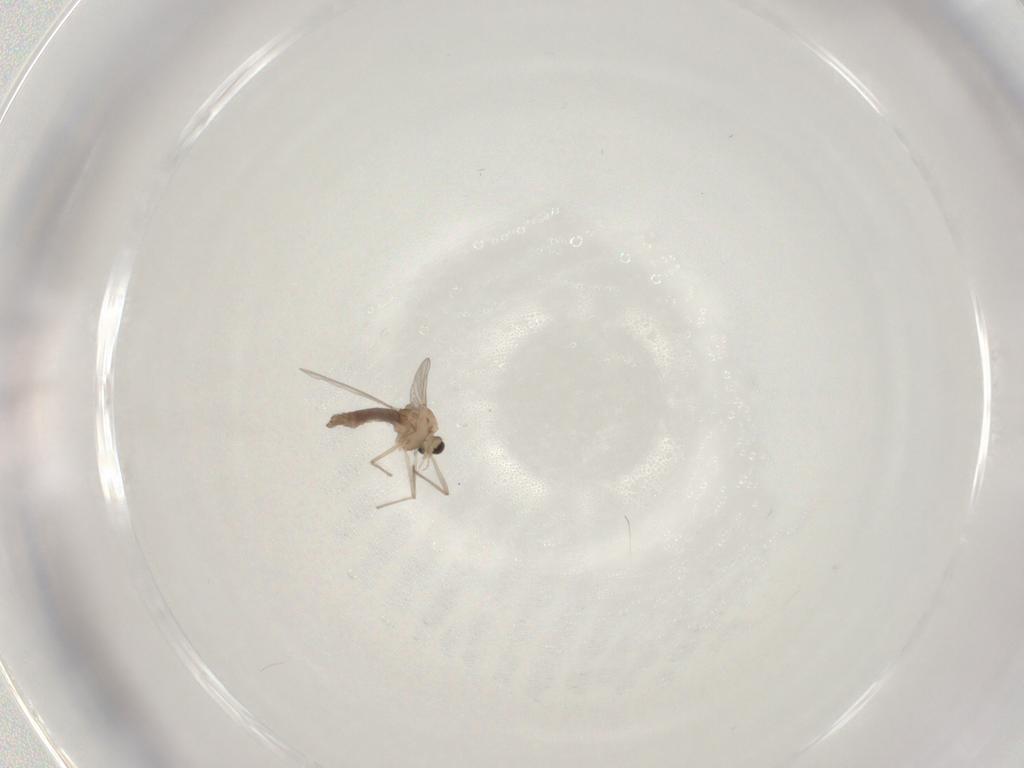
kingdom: Animalia
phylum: Arthropoda
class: Insecta
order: Diptera
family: Chironomidae
